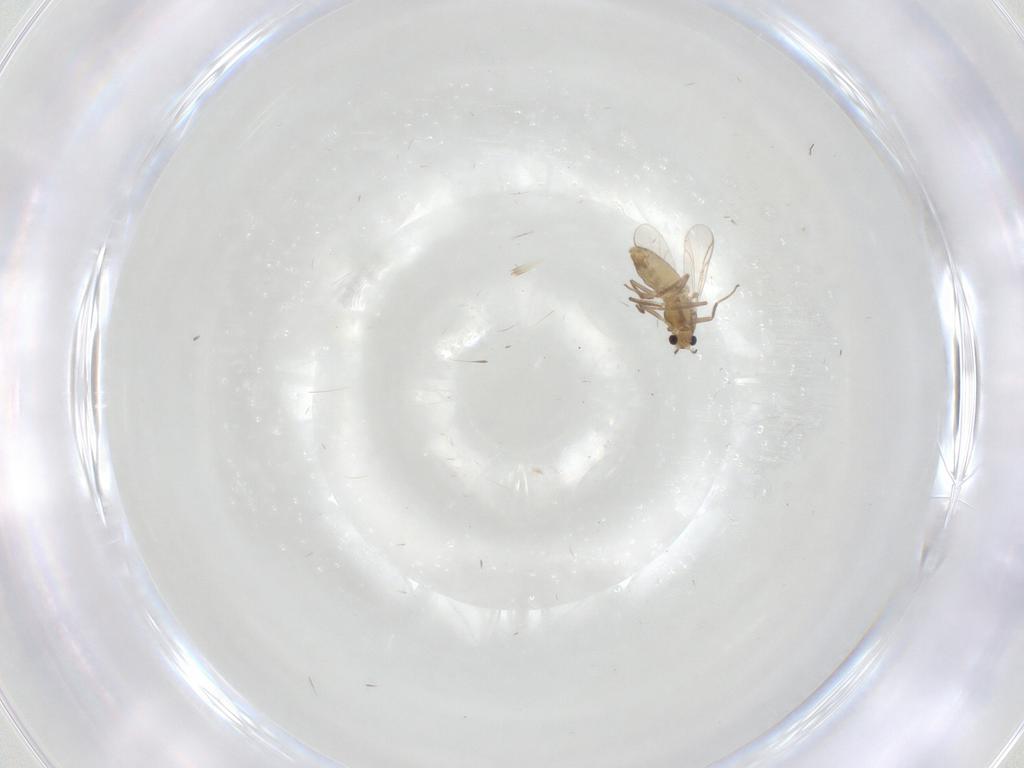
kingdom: Animalia
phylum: Arthropoda
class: Insecta
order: Diptera
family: Chironomidae
